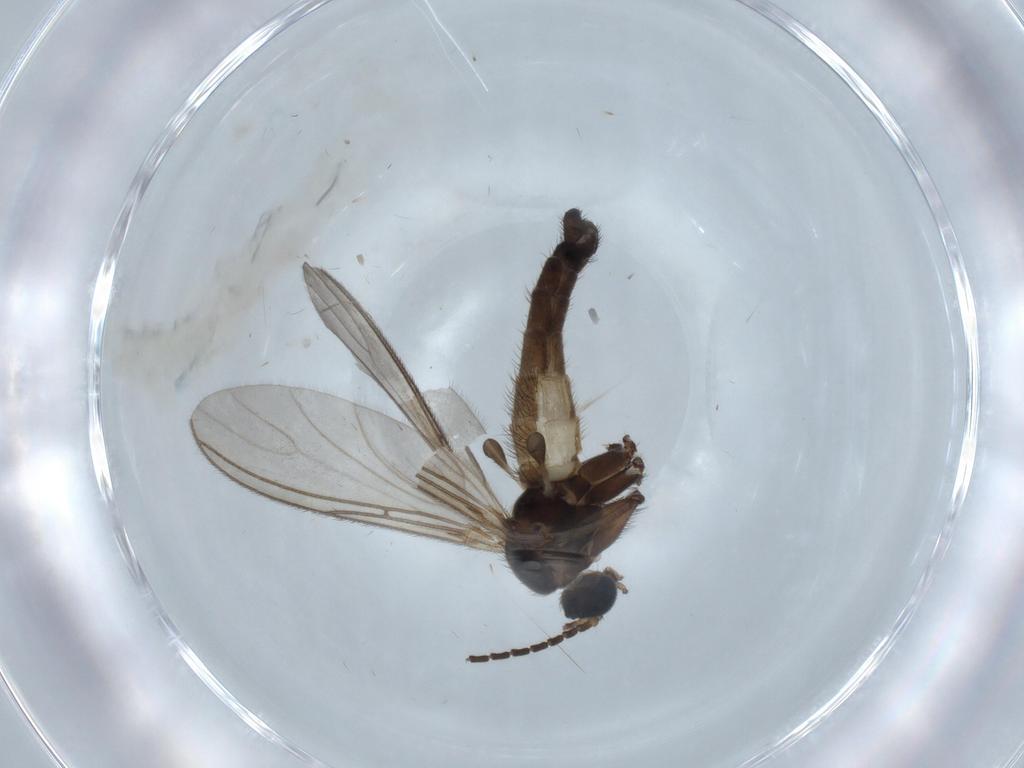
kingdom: Animalia
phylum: Arthropoda
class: Insecta
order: Diptera
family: Sciaridae
